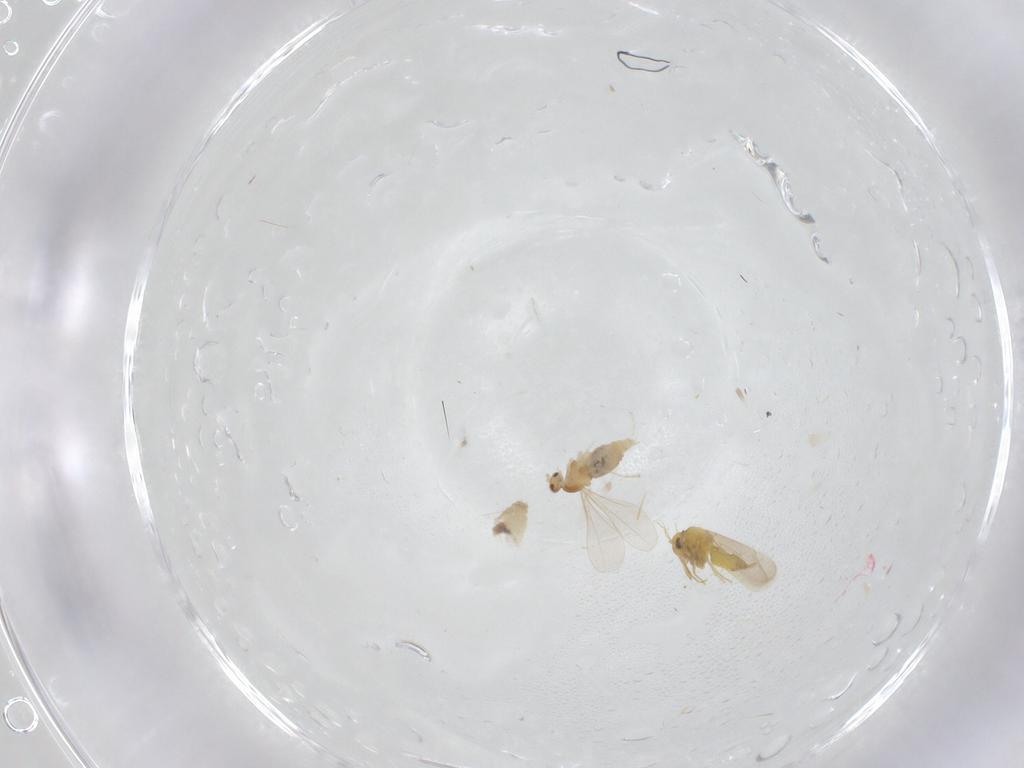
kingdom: Animalia
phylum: Arthropoda
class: Insecta
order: Diptera
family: Cecidomyiidae
